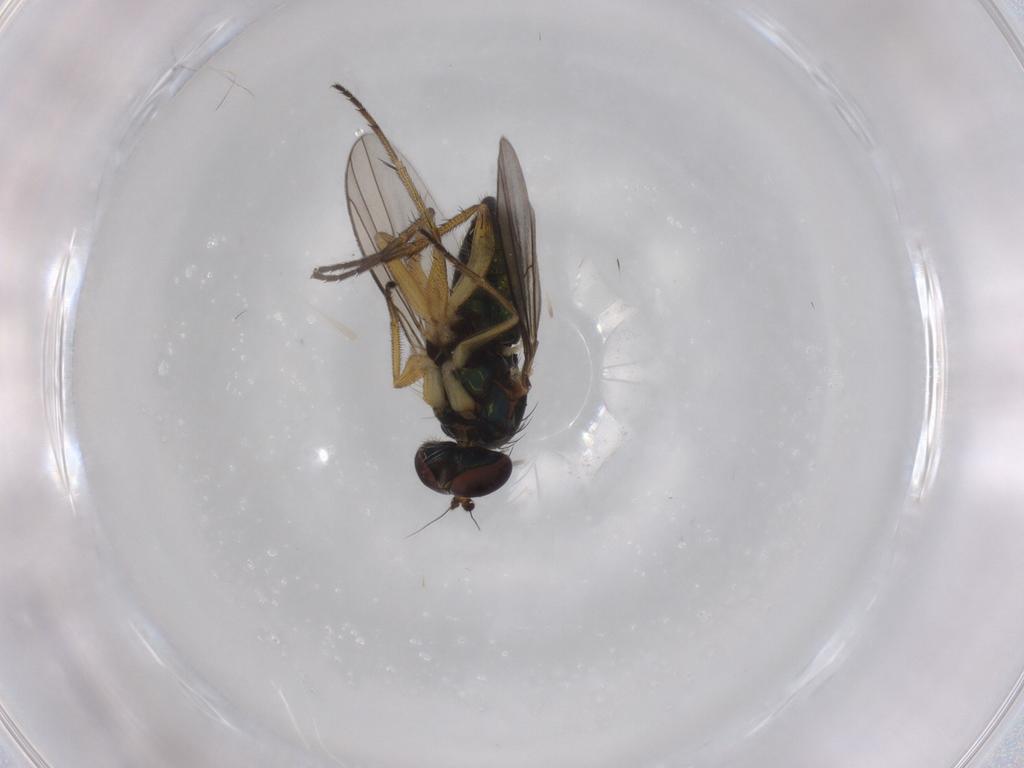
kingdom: Animalia
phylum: Arthropoda
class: Insecta
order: Diptera
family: Dolichopodidae
